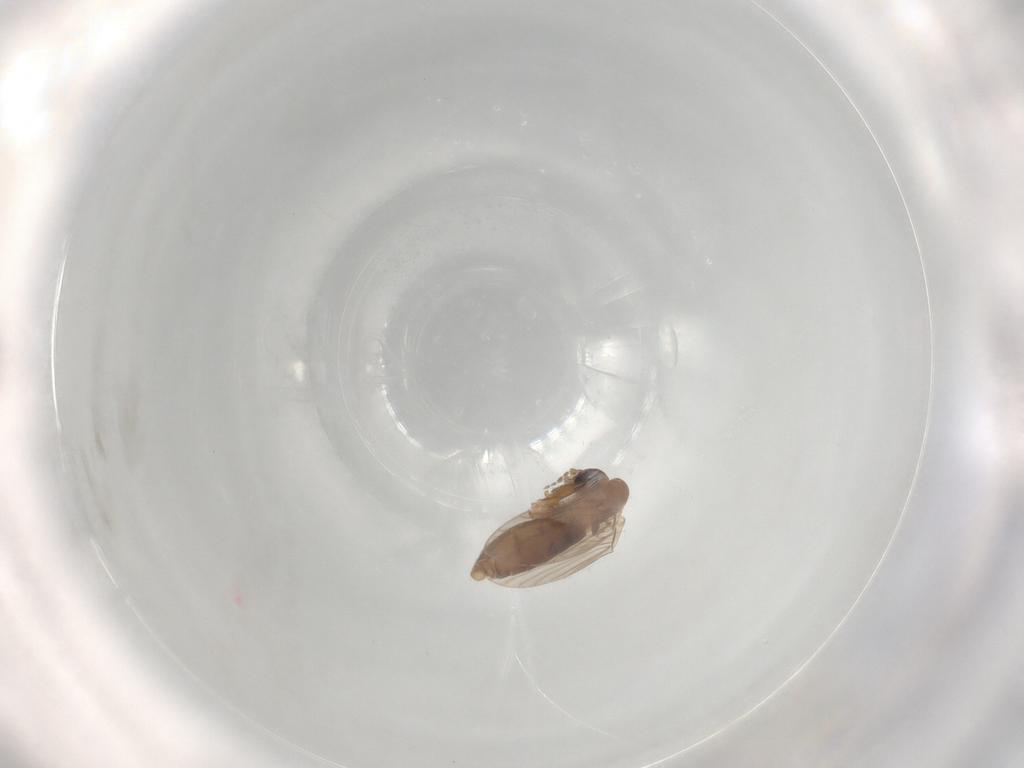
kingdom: Animalia
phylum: Arthropoda
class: Insecta
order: Diptera
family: Psychodidae
